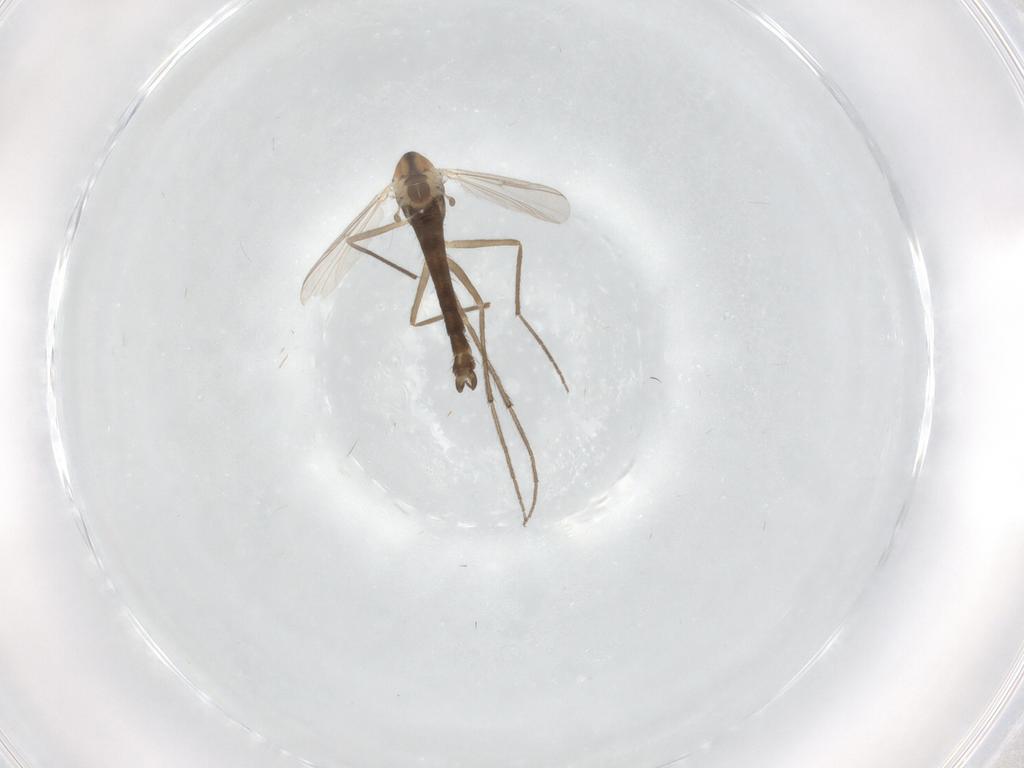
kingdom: Animalia
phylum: Arthropoda
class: Insecta
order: Diptera
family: Chironomidae
